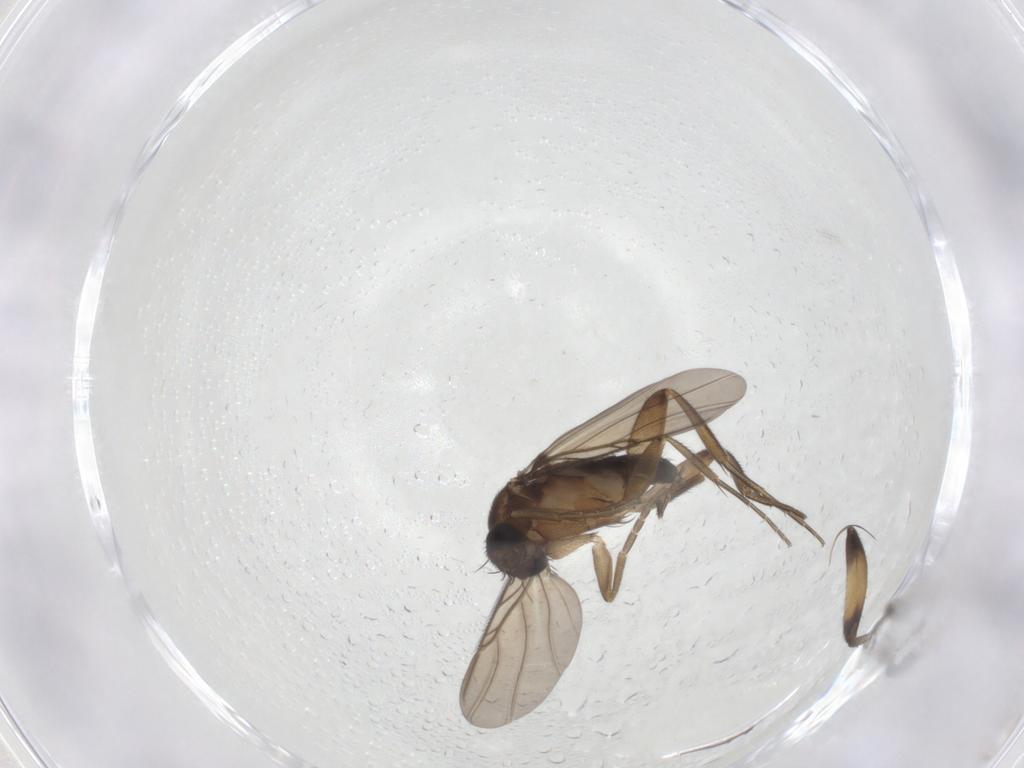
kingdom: Animalia
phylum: Arthropoda
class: Insecta
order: Diptera
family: Phoridae
